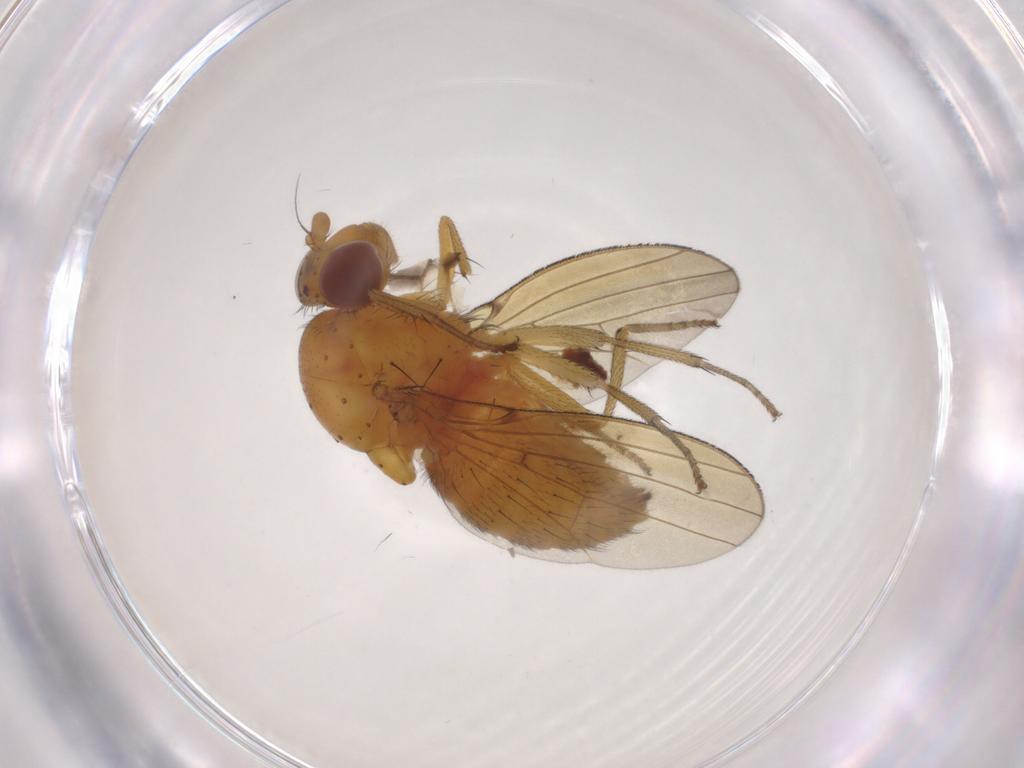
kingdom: Animalia
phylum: Arthropoda
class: Insecta
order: Diptera
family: Limoniidae
